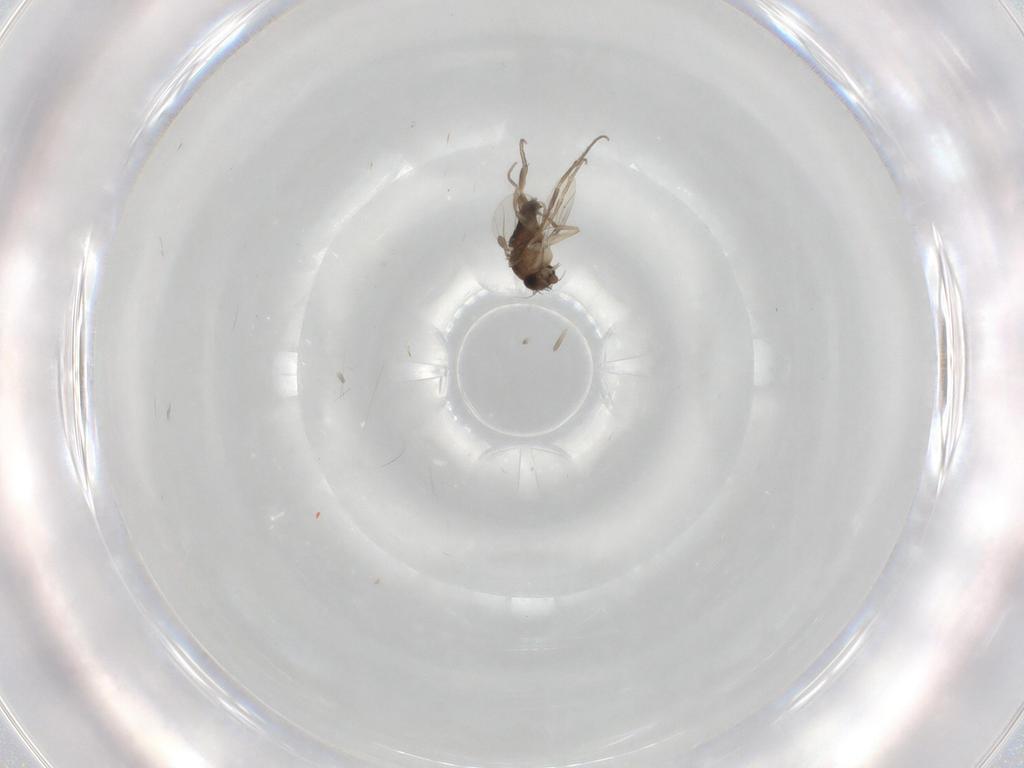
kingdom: Animalia
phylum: Arthropoda
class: Insecta
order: Diptera
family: Phoridae
